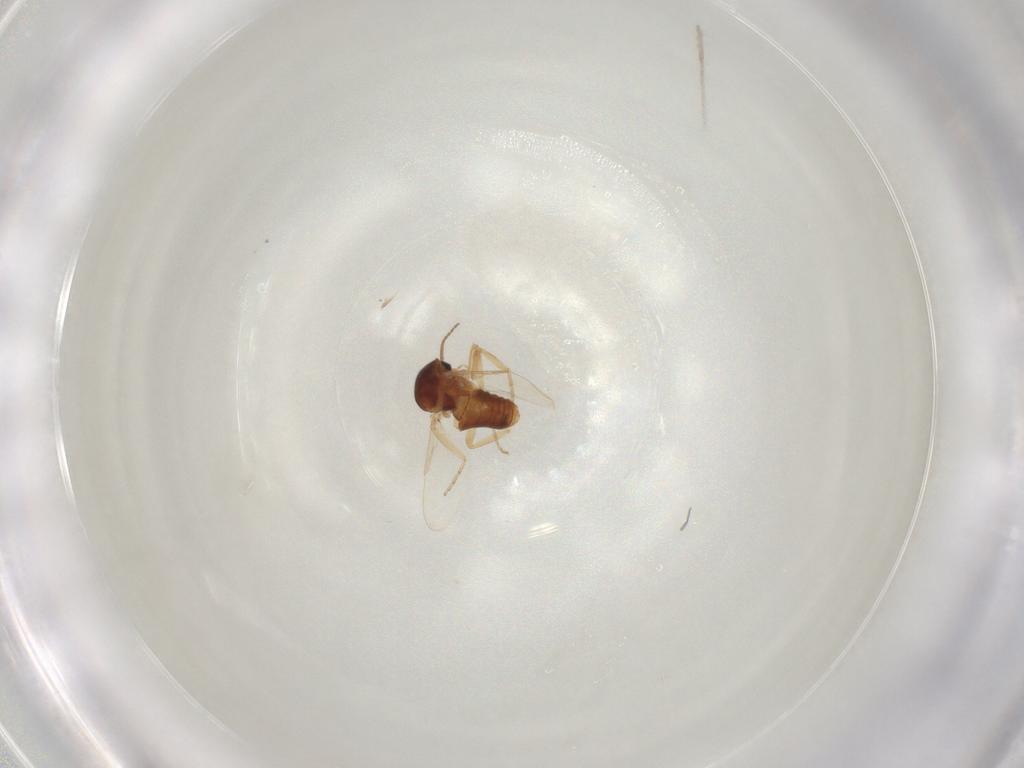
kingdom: Animalia
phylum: Arthropoda
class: Insecta
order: Diptera
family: Ceratopogonidae
